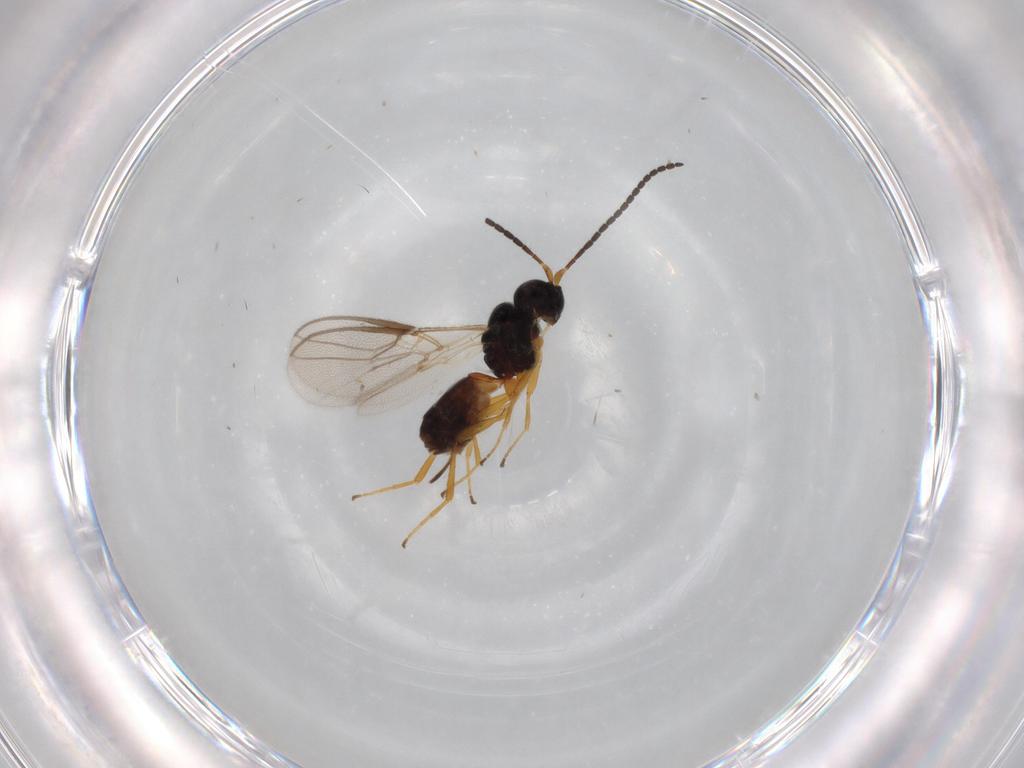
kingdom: Animalia
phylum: Arthropoda
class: Insecta
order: Hymenoptera
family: Braconidae
